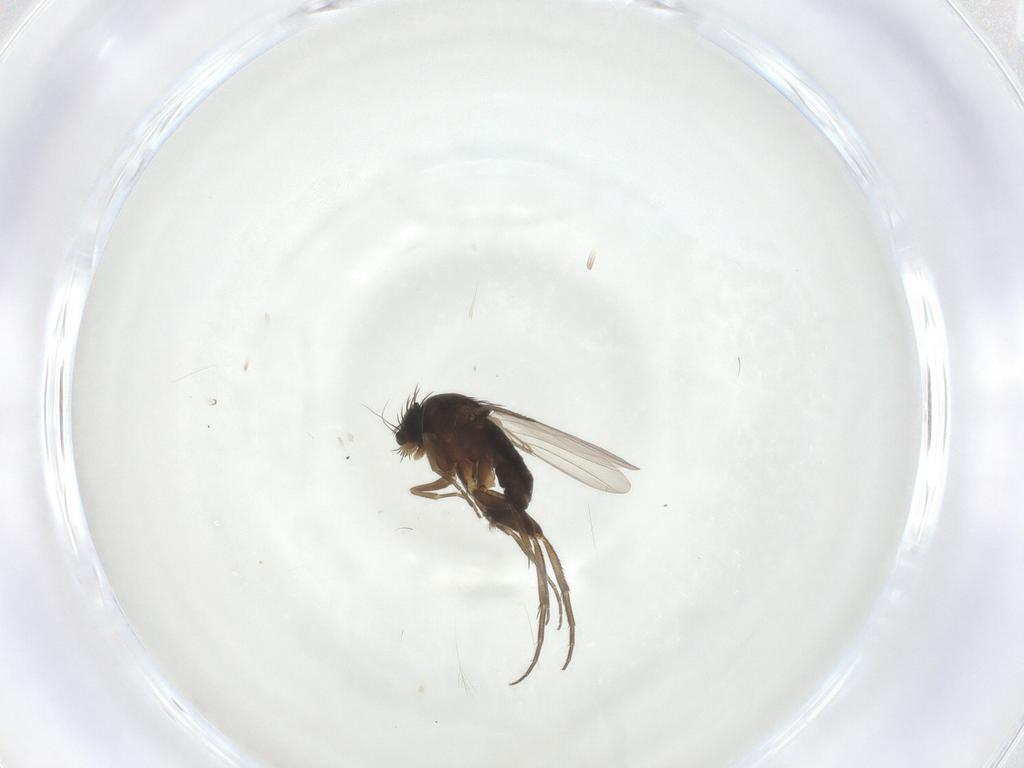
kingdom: Animalia
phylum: Arthropoda
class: Insecta
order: Diptera
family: Phoridae
